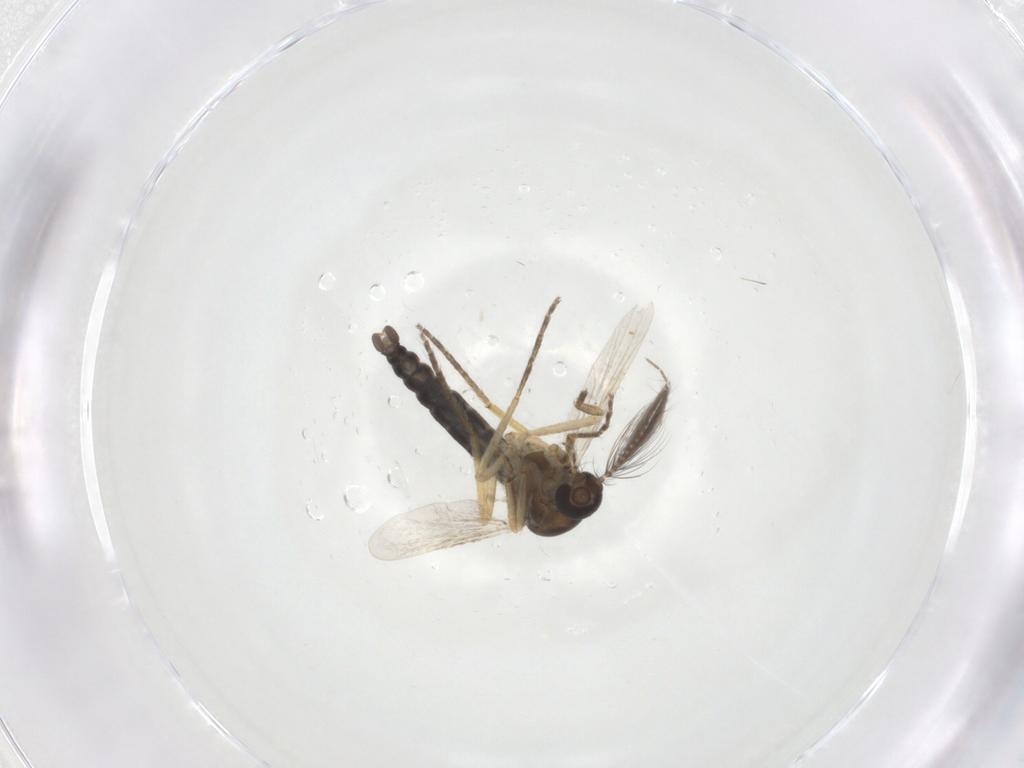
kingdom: Animalia
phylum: Arthropoda
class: Insecta
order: Diptera
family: Ceratopogonidae
